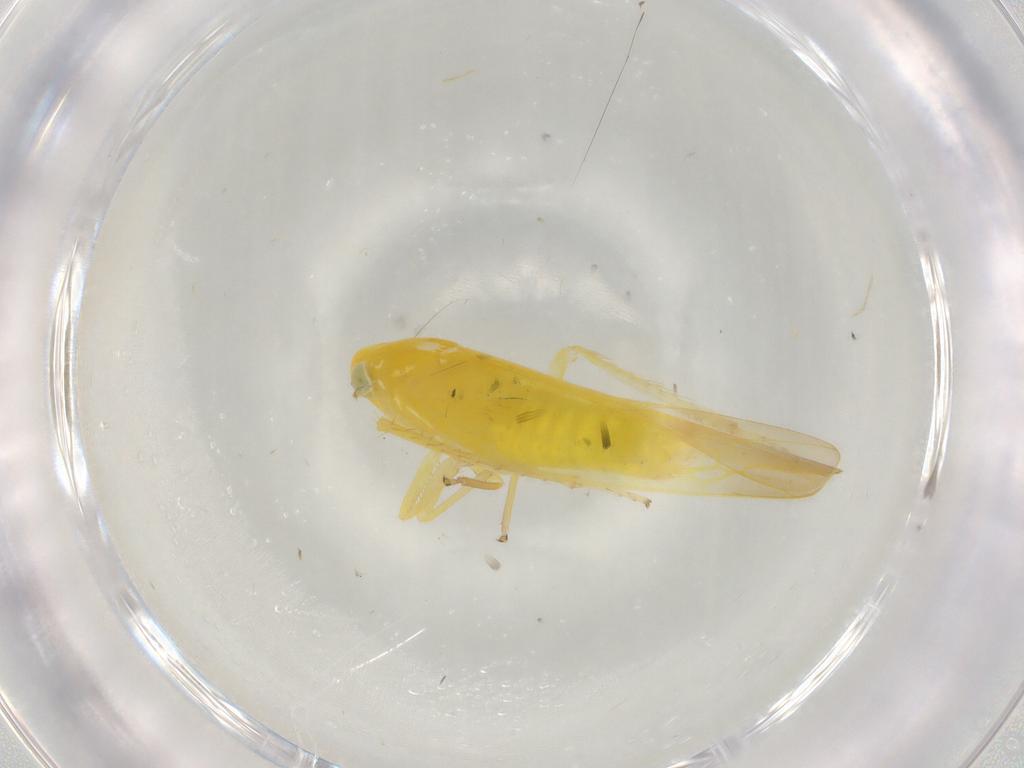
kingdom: Animalia
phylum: Arthropoda
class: Insecta
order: Hemiptera
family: Cicadellidae
